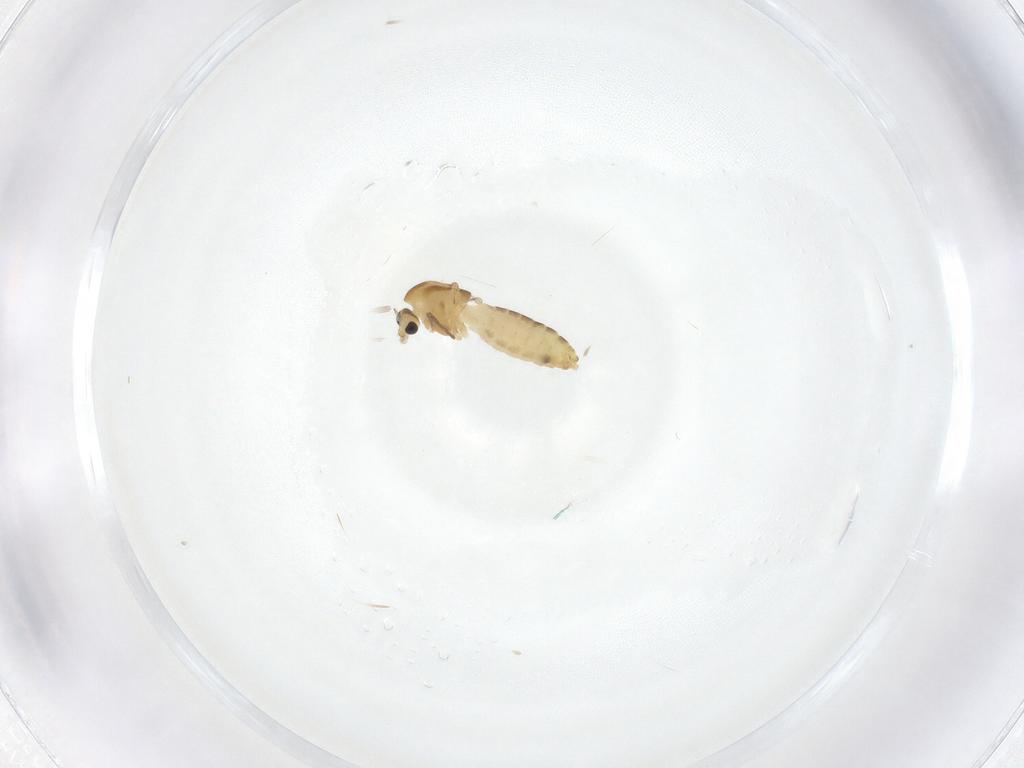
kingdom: Animalia
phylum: Arthropoda
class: Insecta
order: Diptera
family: Chironomidae
